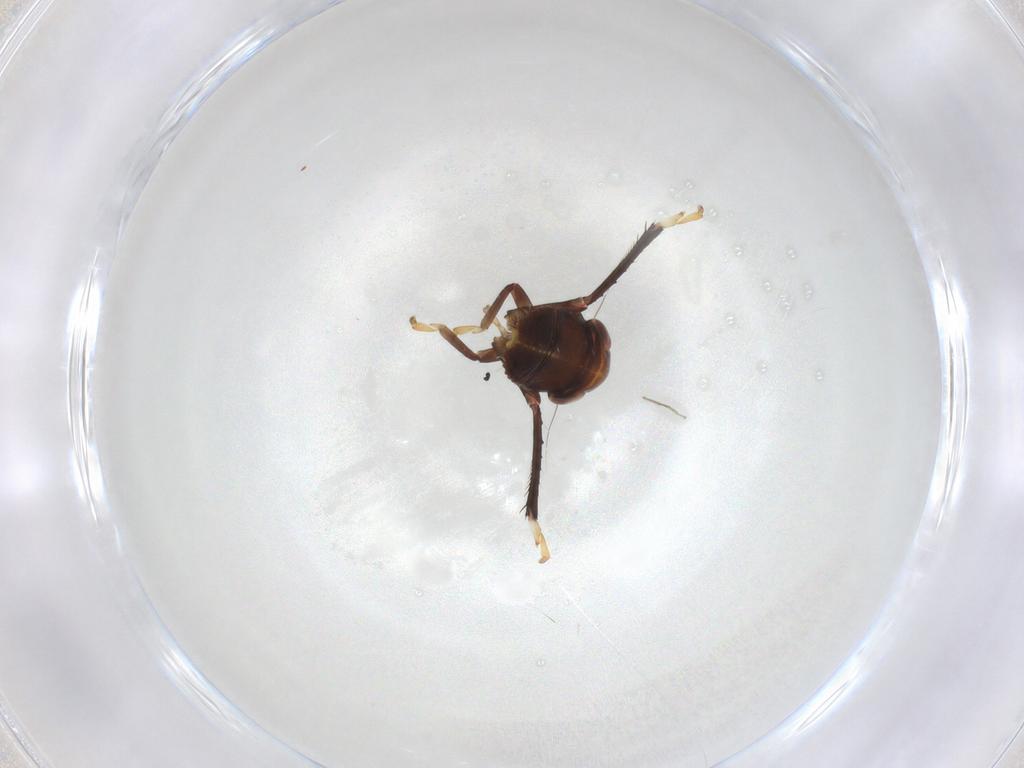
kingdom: Animalia
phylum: Arthropoda
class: Insecta
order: Hemiptera
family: Cicadellidae
